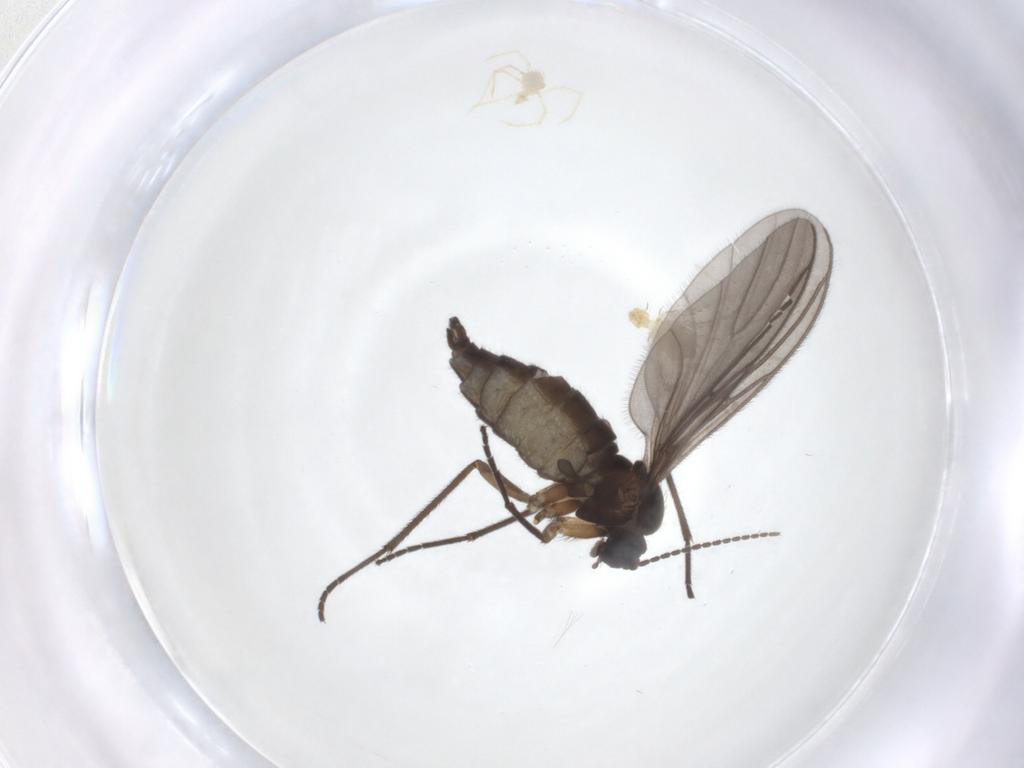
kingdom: Animalia
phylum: Arthropoda
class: Insecta
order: Diptera
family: Sciaridae
